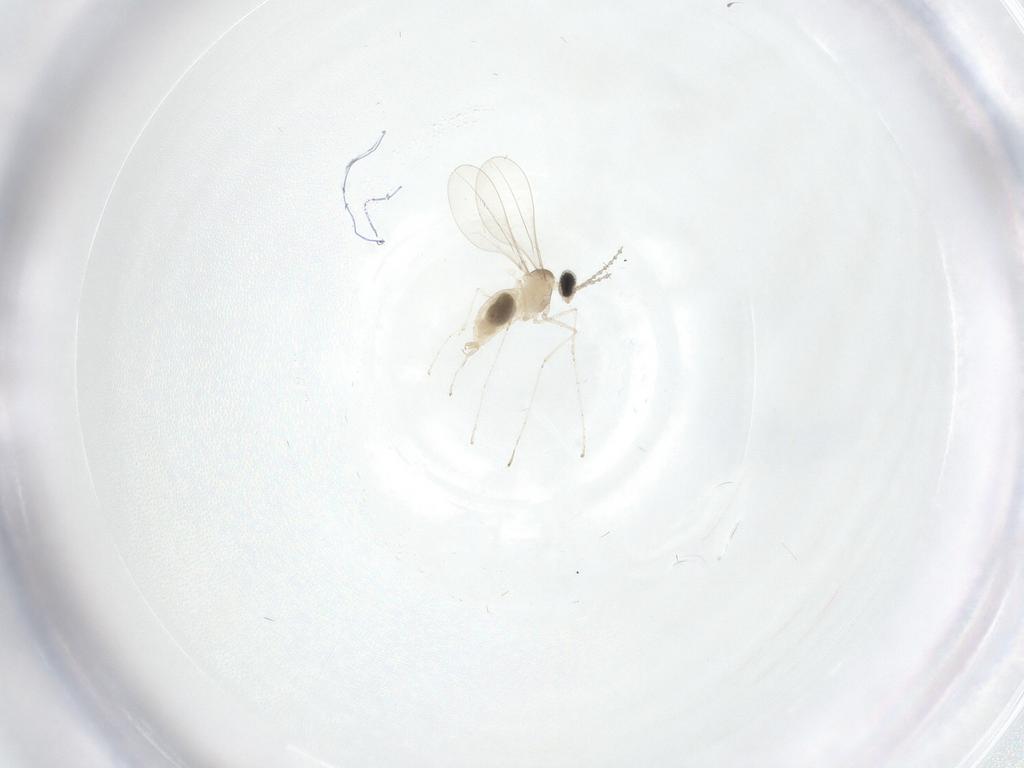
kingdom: Animalia
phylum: Arthropoda
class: Insecta
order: Diptera
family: Cecidomyiidae
